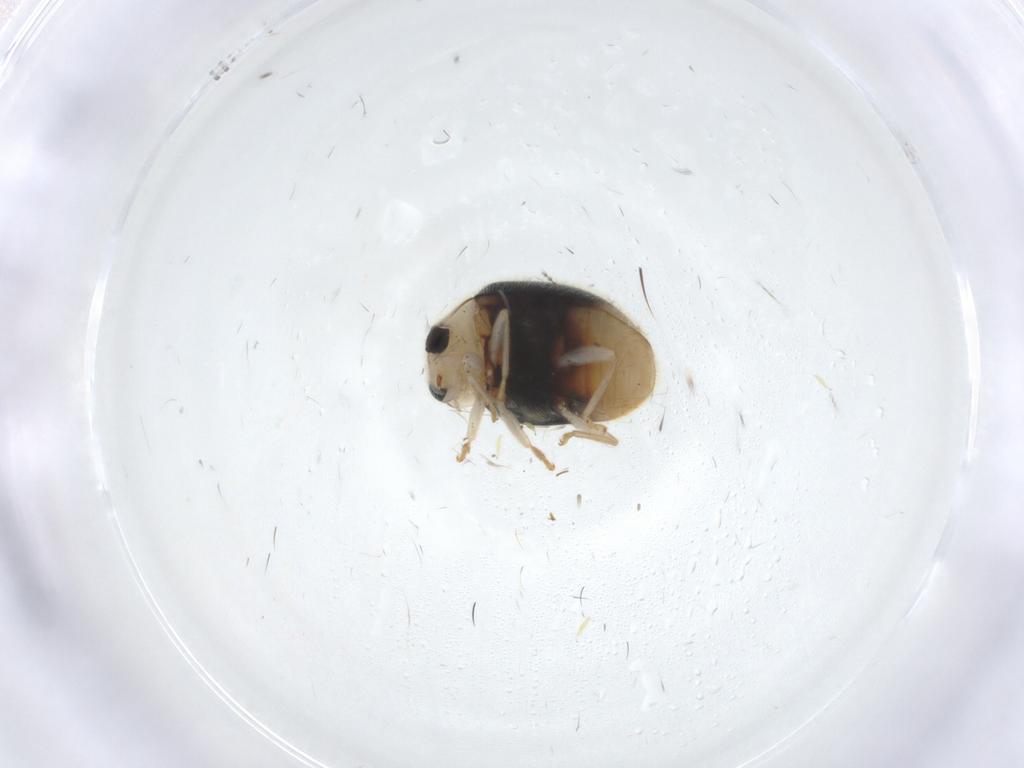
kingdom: Animalia
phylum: Arthropoda
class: Insecta
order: Coleoptera
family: Coccinellidae
